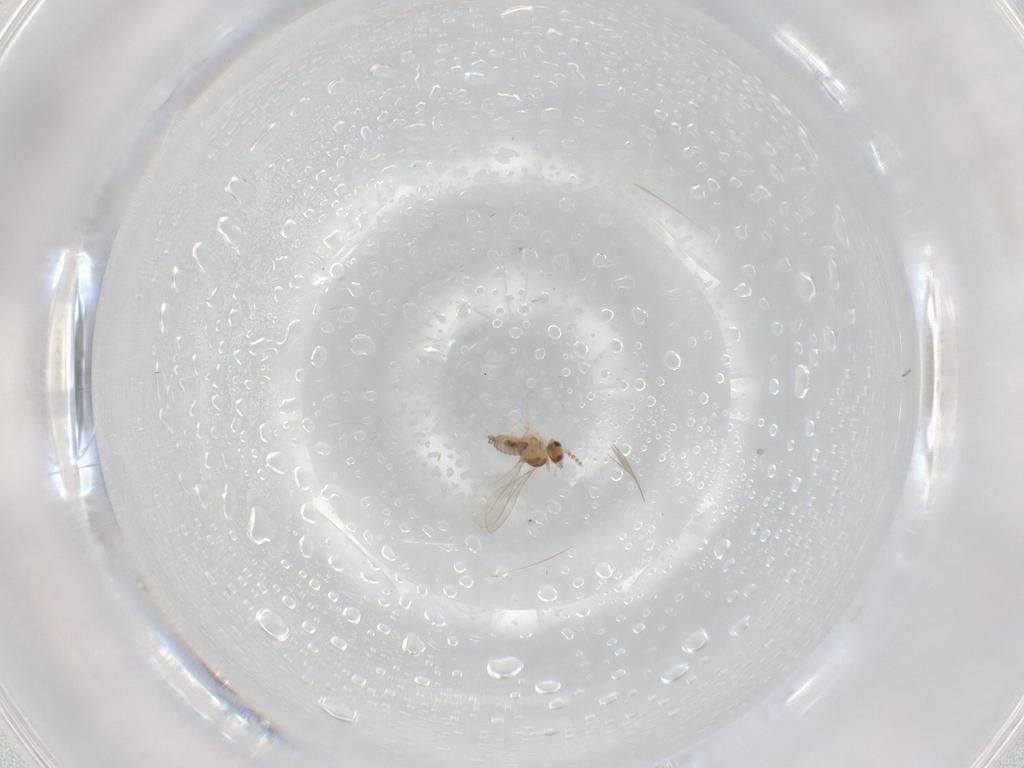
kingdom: Animalia
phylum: Arthropoda
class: Insecta
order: Diptera
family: Cecidomyiidae
